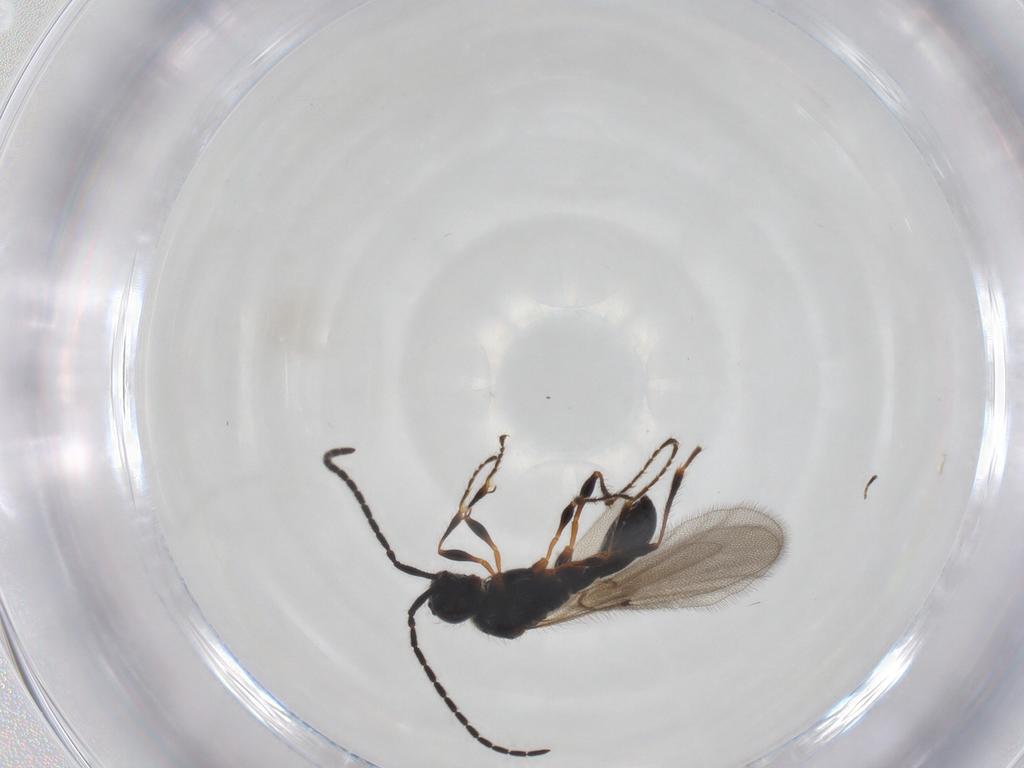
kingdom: Animalia
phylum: Arthropoda
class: Insecta
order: Hymenoptera
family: Diapriidae
